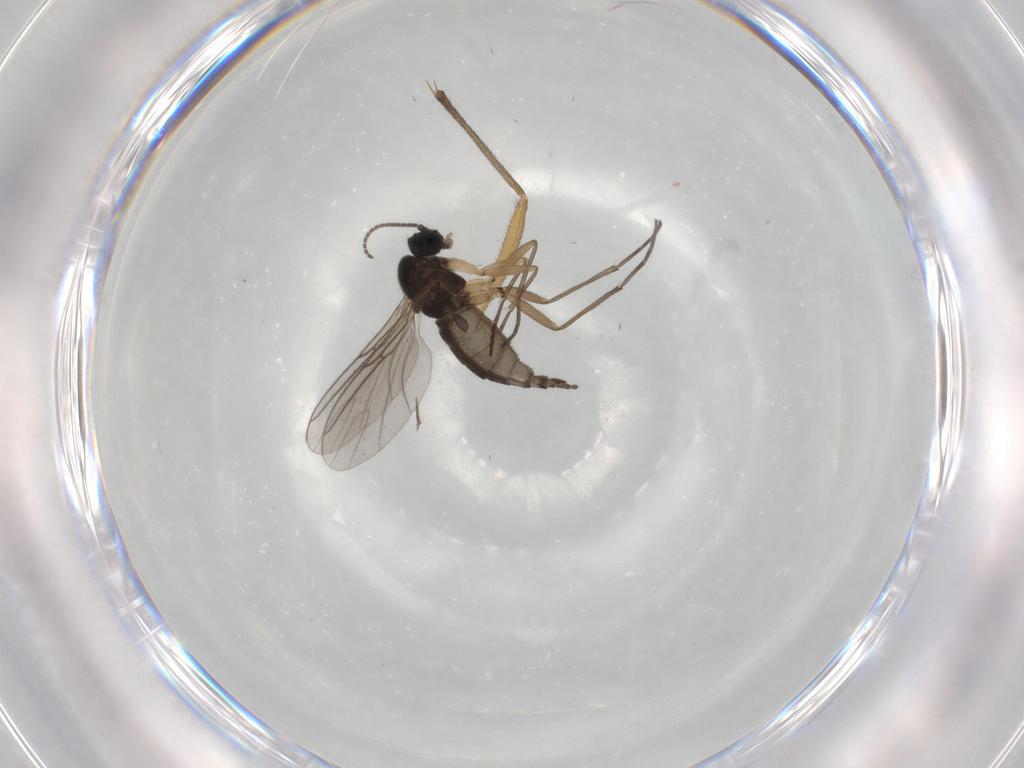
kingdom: Animalia
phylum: Arthropoda
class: Insecta
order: Diptera
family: Sciaridae
